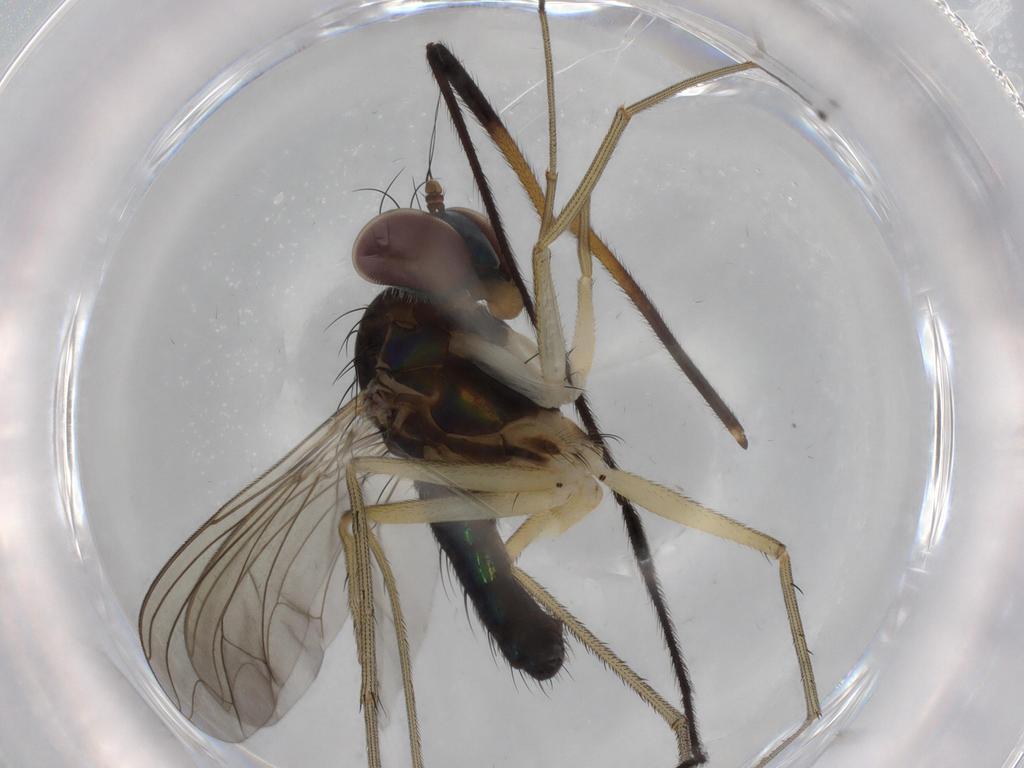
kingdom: Animalia
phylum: Arthropoda
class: Insecta
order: Diptera
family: Dolichopodidae
